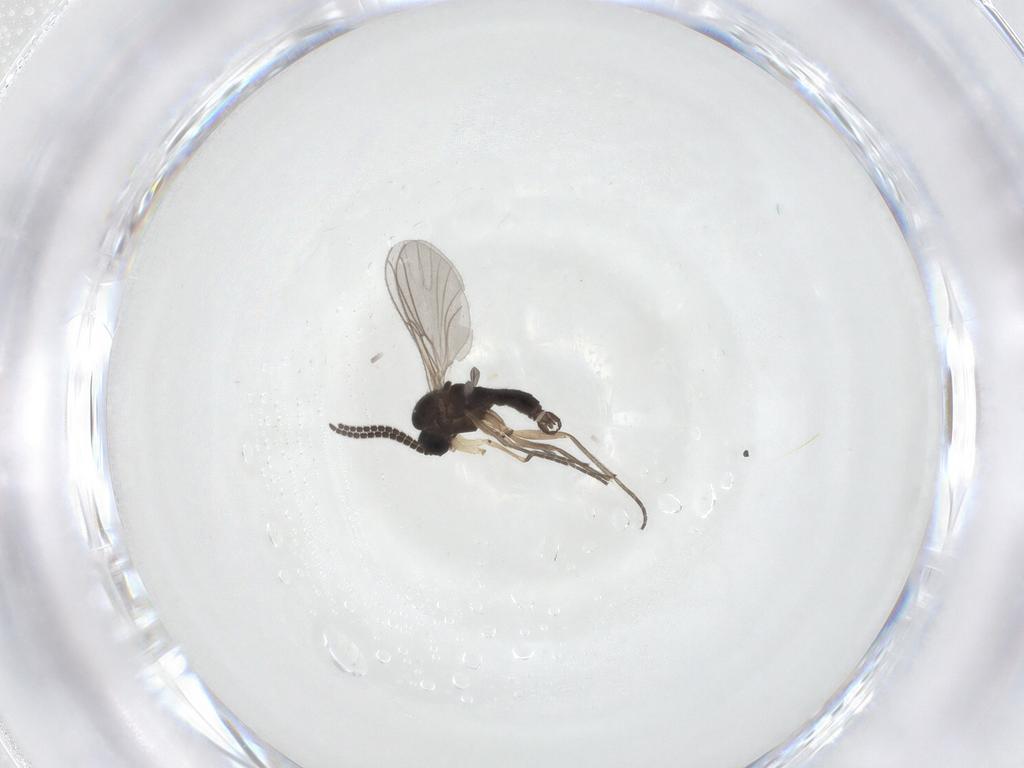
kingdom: Animalia
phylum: Arthropoda
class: Insecta
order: Diptera
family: Sciaridae
